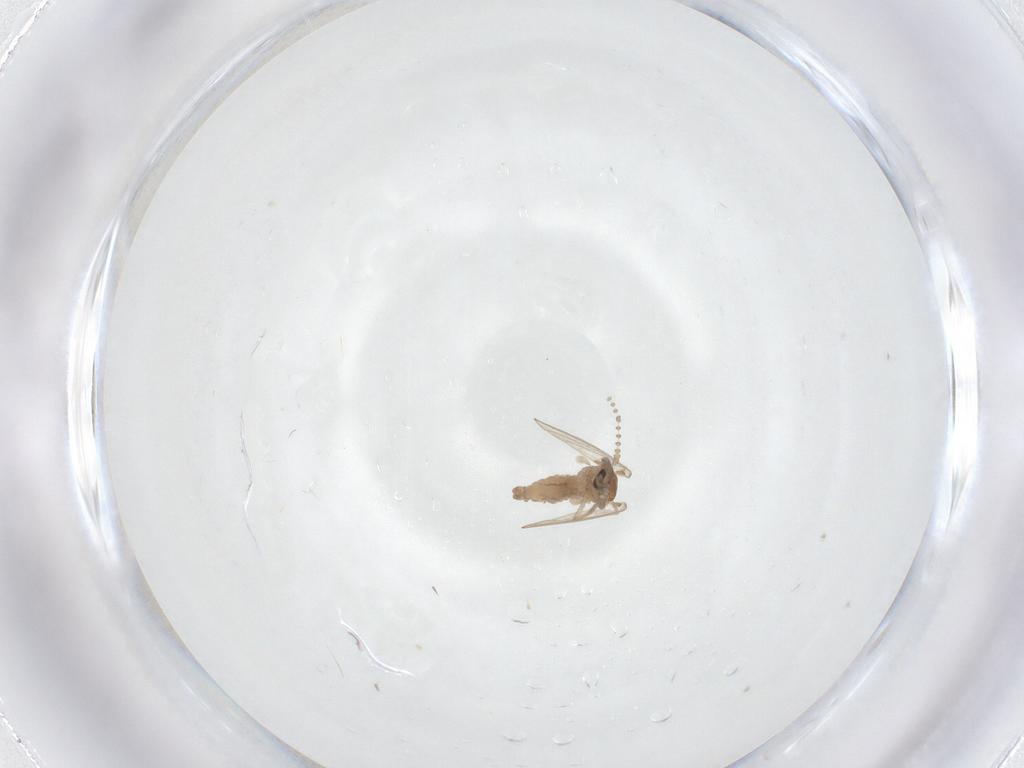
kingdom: Animalia
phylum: Arthropoda
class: Insecta
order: Diptera
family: Psychodidae
